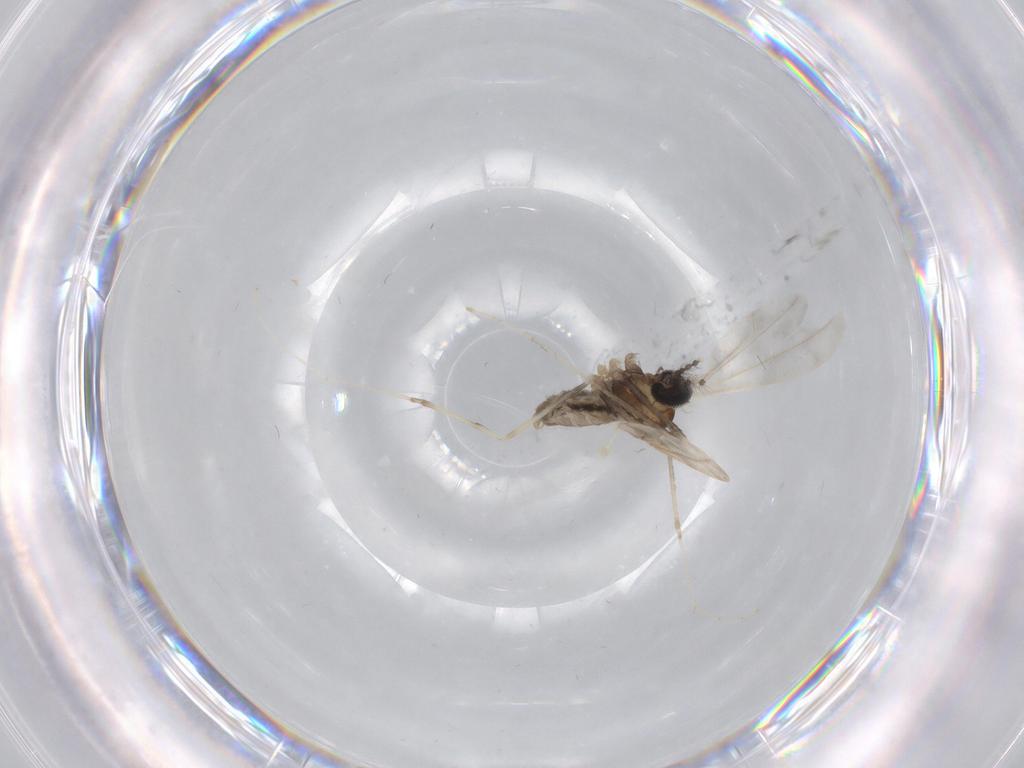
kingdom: Animalia
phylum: Arthropoda
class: Insecta
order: Diptera
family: Cecidomyiidae
